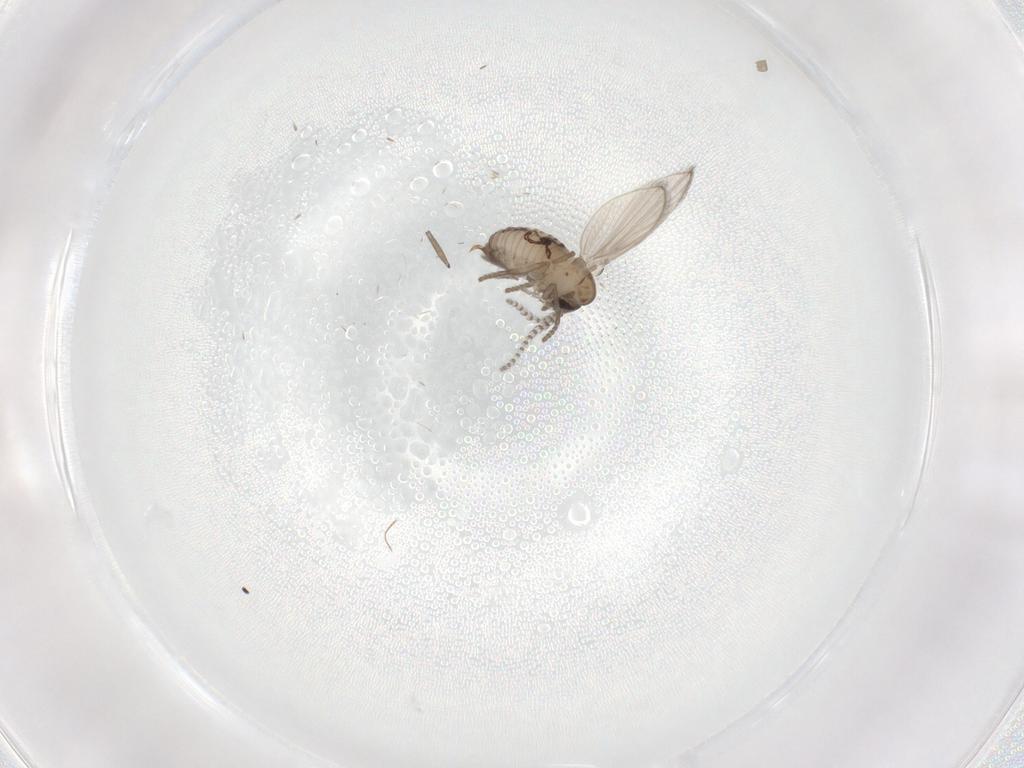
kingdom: Animalia
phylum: Arthropoda
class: Insecta
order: Diptera
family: Psychodidae
